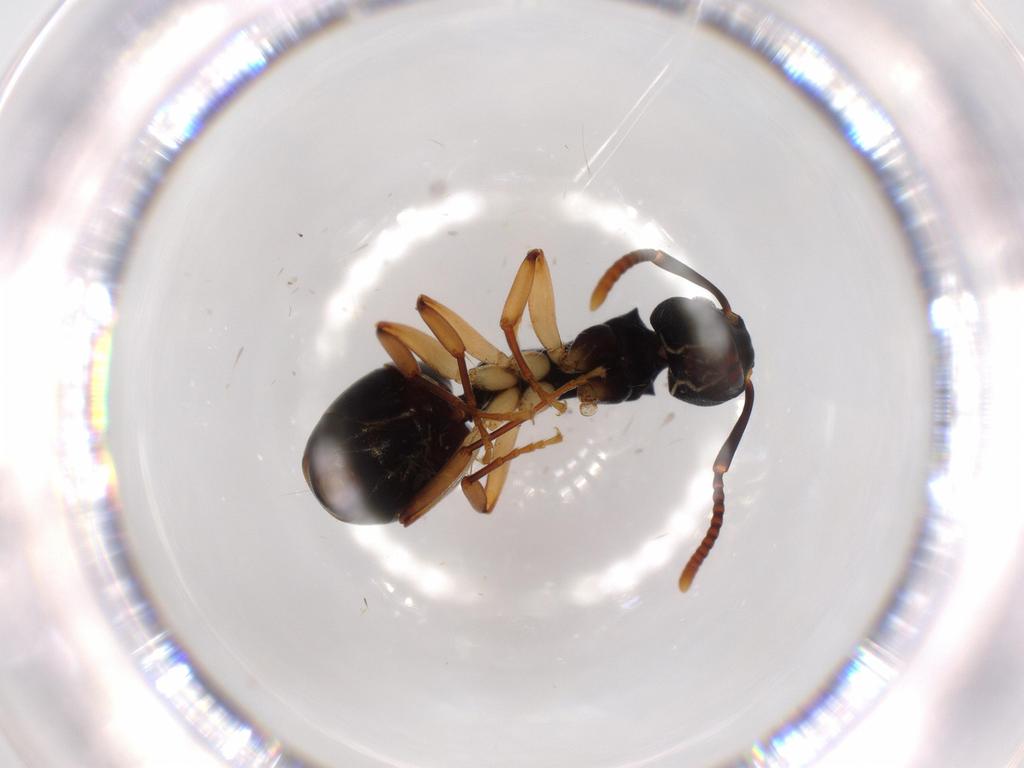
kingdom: Animalia
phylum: Arthropoda
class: Insecta
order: Hymenoptera
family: Formicidae
